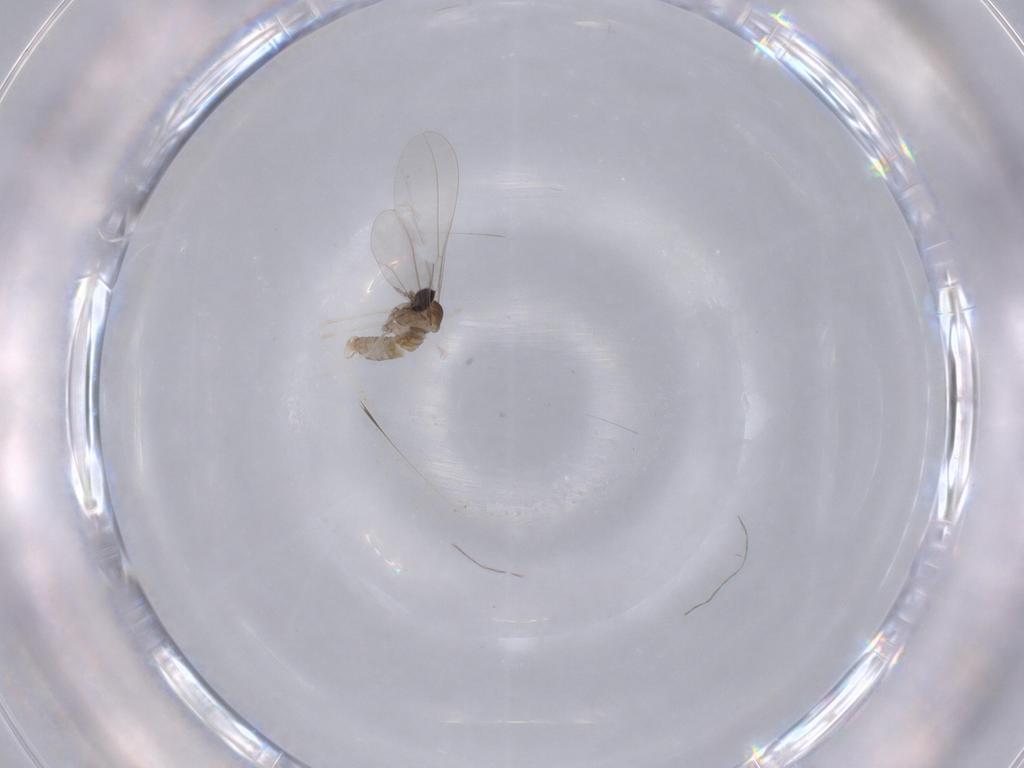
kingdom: Animalia
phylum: Arthropoda
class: Insecta
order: Diptera
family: Cecidomyiidae
